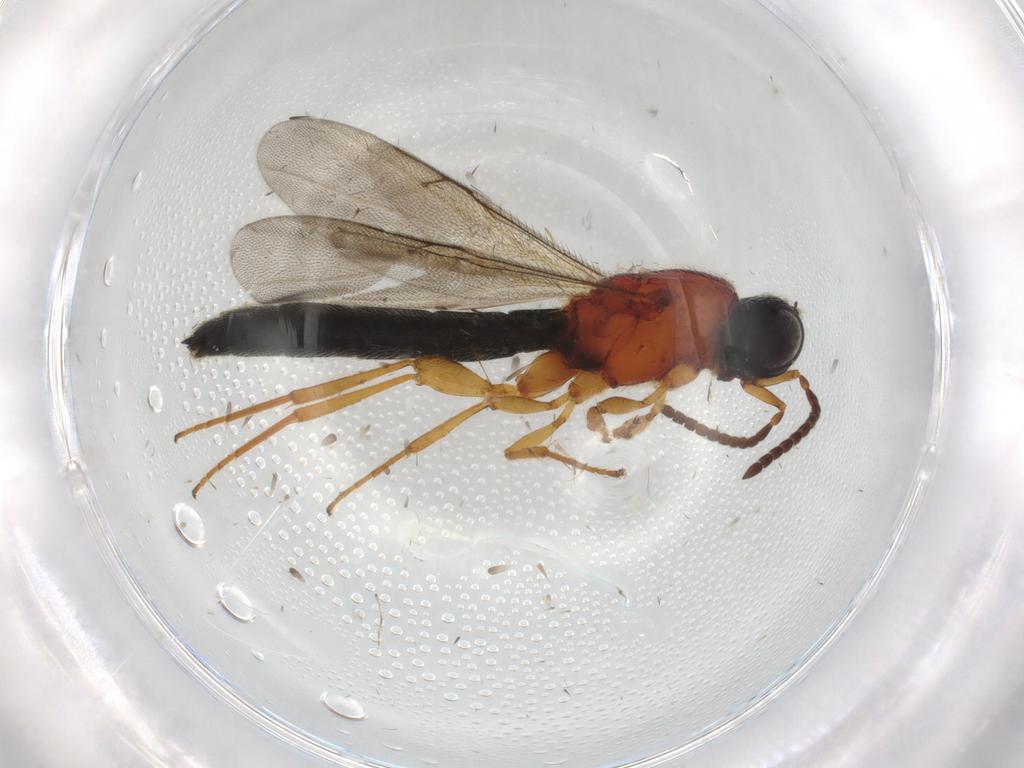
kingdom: Animalia
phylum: Arthropoda
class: Insecta
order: Hymenoptera
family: Scelionidae
